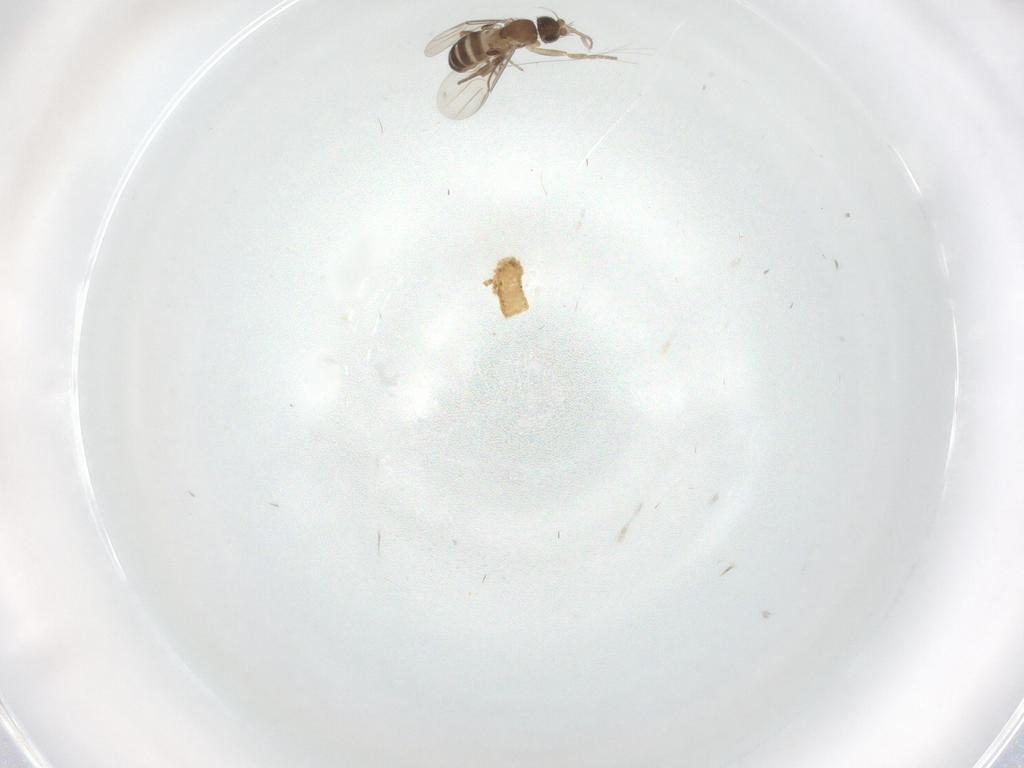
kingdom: Animalia
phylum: Arthropoda
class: Insecta
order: Diptera
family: Phoridae
